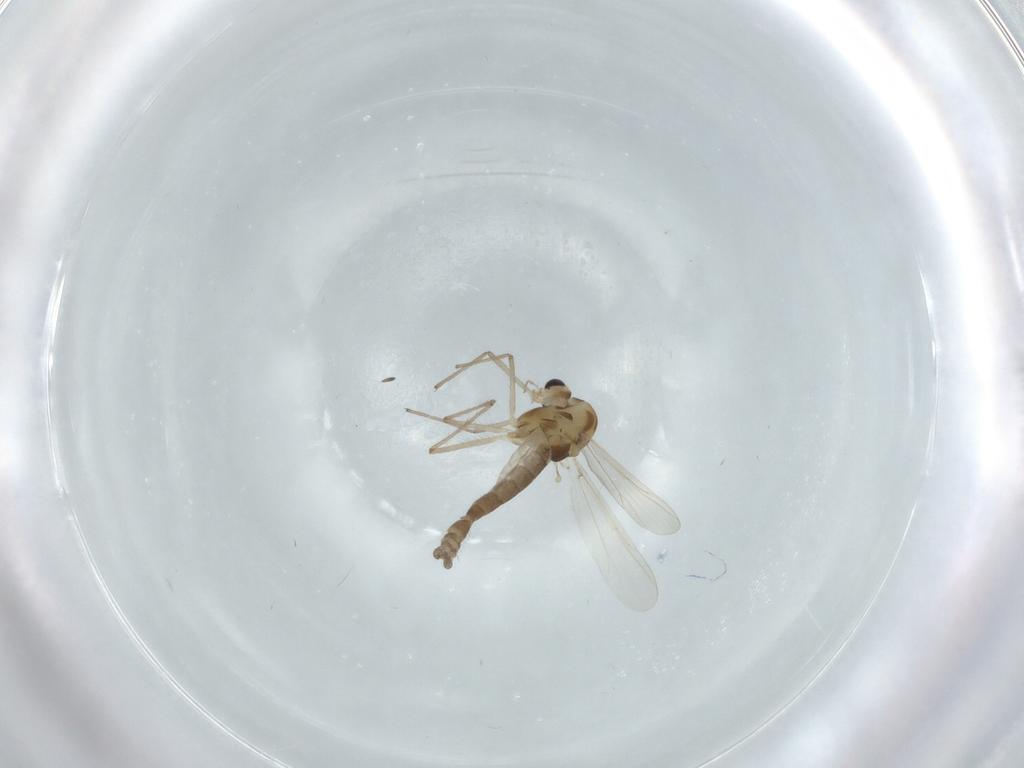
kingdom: Animalia
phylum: Arthropoda
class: Insecta
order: Diptera
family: Chironomidae
